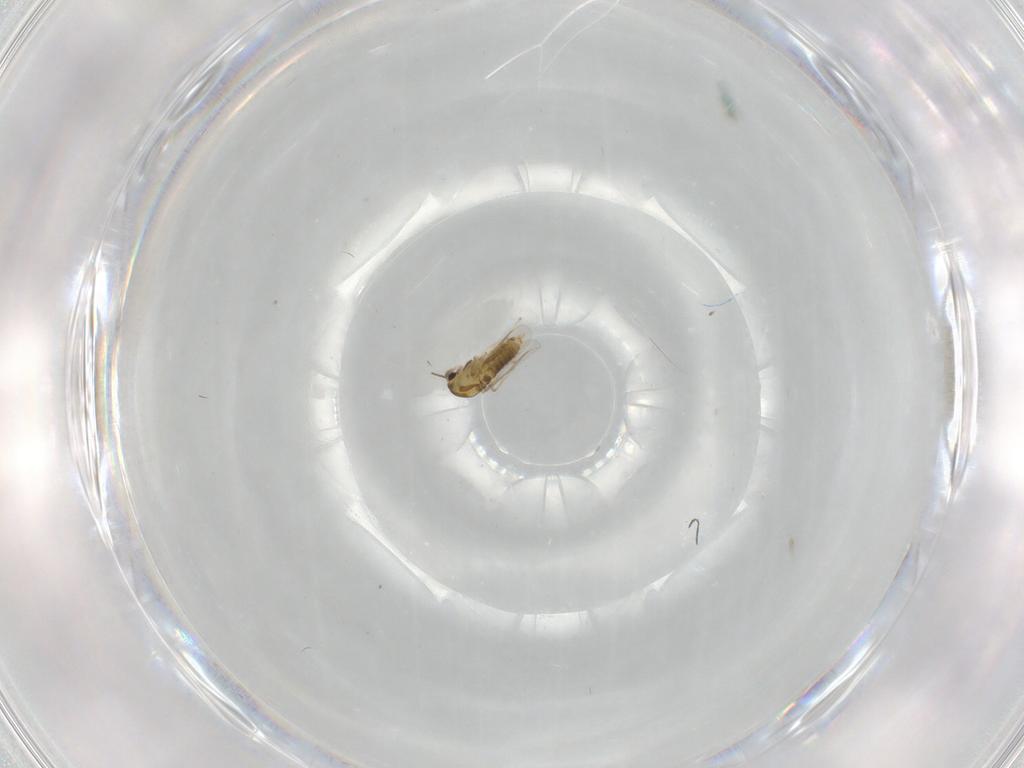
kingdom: Animalia
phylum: Arthropoda
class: Insecta
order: Diptera
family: Chironomidae
